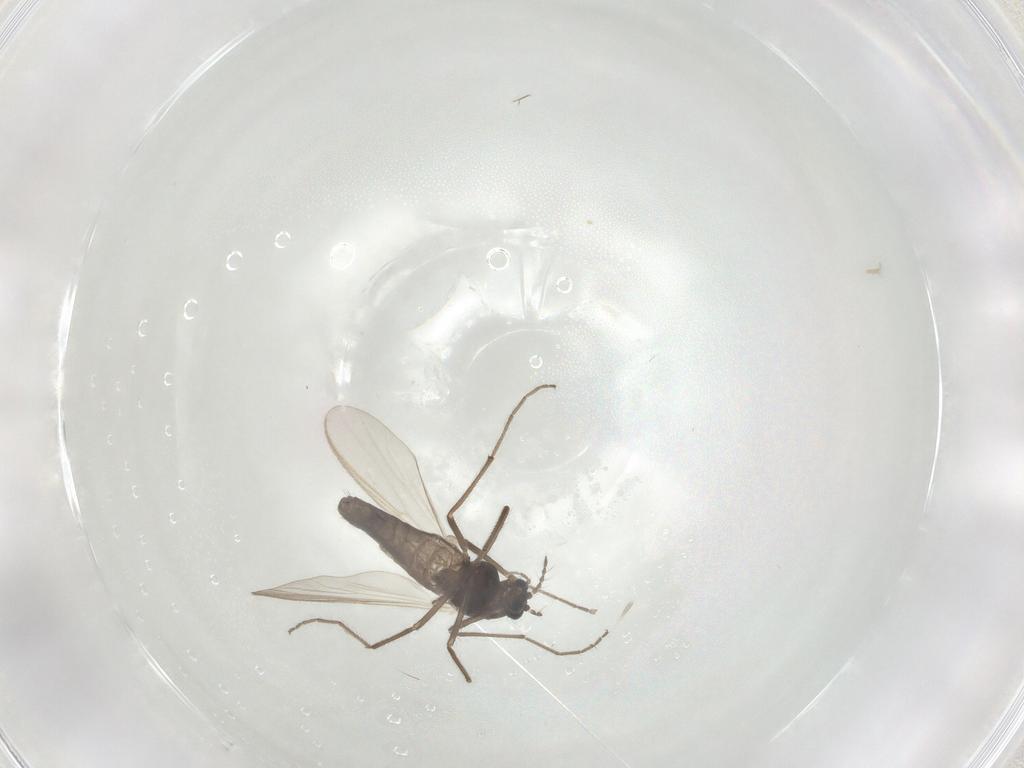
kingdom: Animalia
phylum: Arthropoda
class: Insecta
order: Diptera
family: Chironomidae
